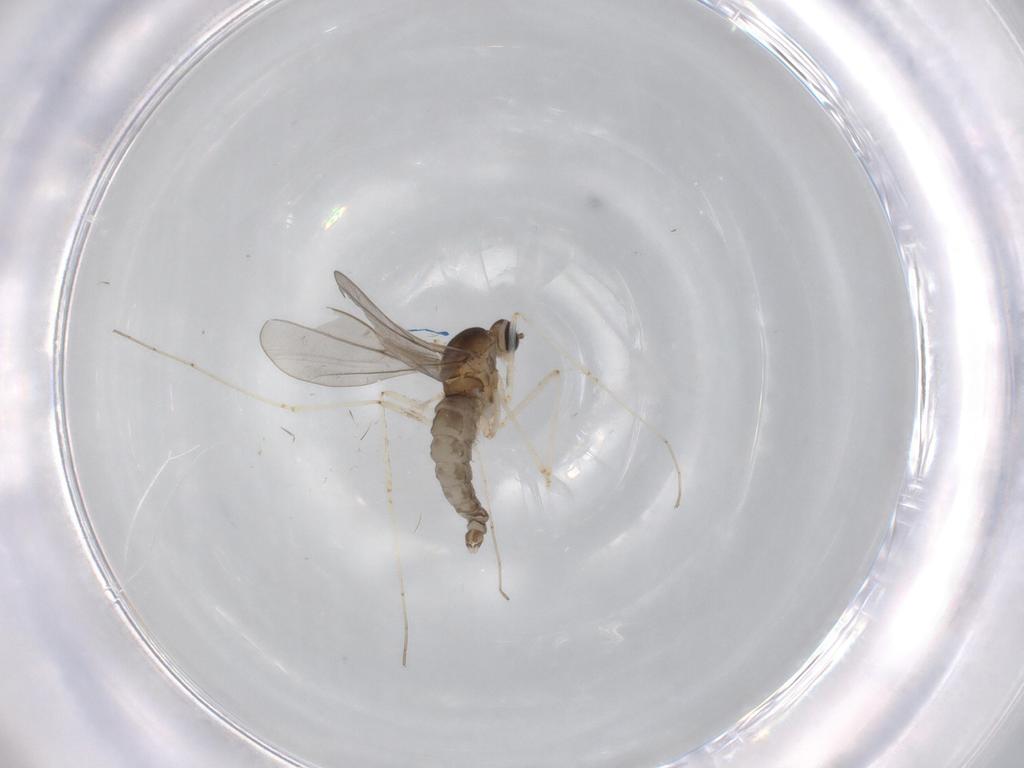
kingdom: Animalia
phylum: Arthropoda
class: Insecta
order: Diptera
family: Cecidomyiidae
